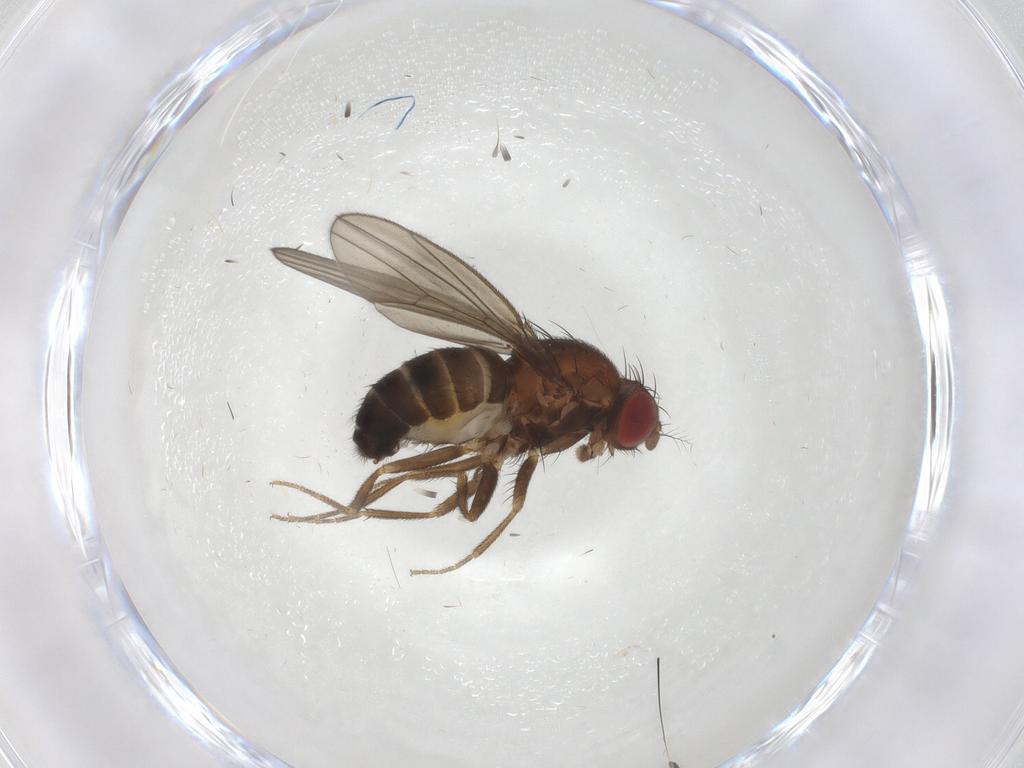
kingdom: Animalia
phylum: Arthropoda
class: Insecta
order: Diptera
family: Drosophilidae
